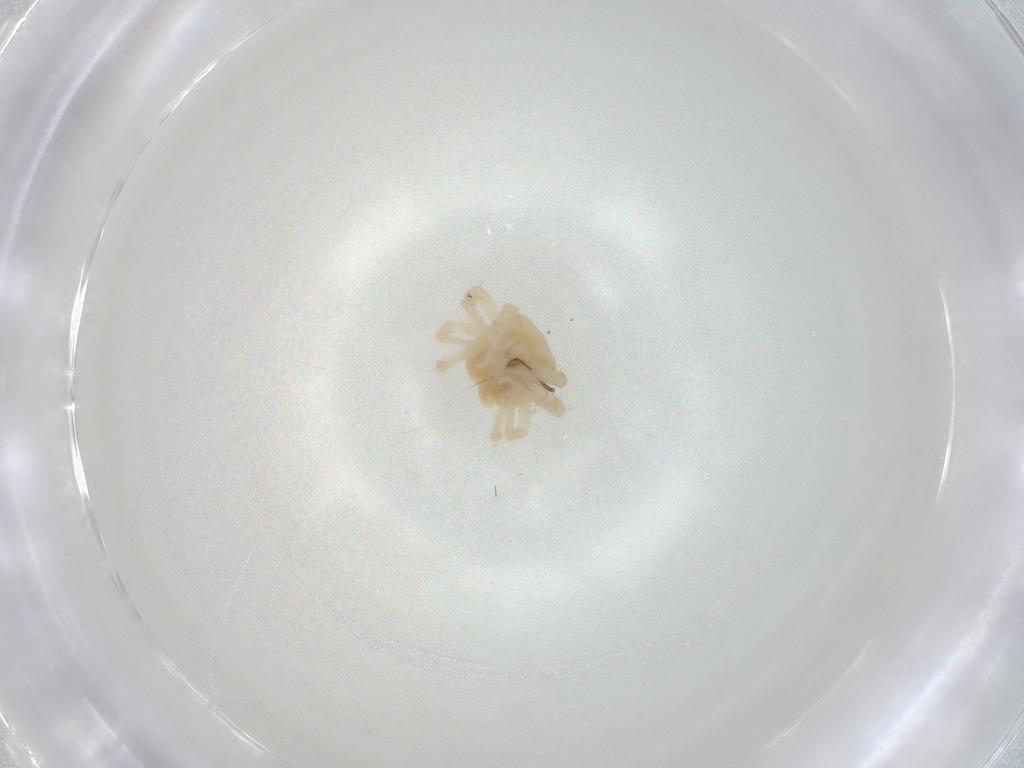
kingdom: Animalia
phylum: Arthropoda
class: Arachnida
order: Trombidiformes
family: Anystidae
